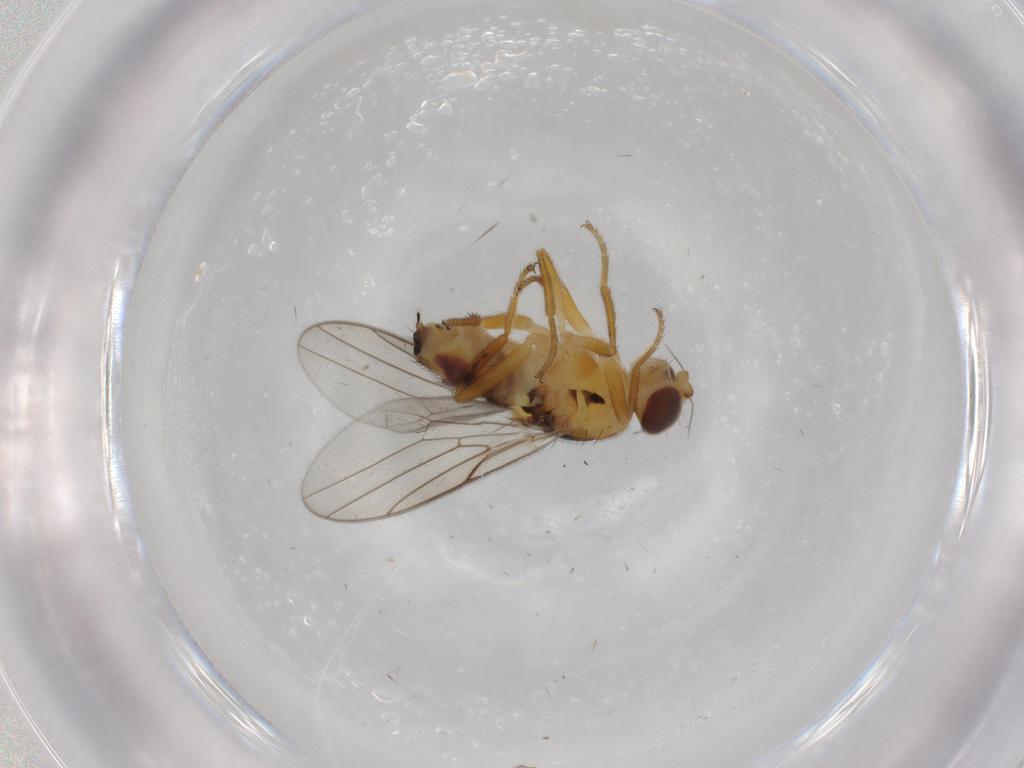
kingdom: Animalia
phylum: Arthropoda
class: Insecta
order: Diptera
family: Chloropidae
